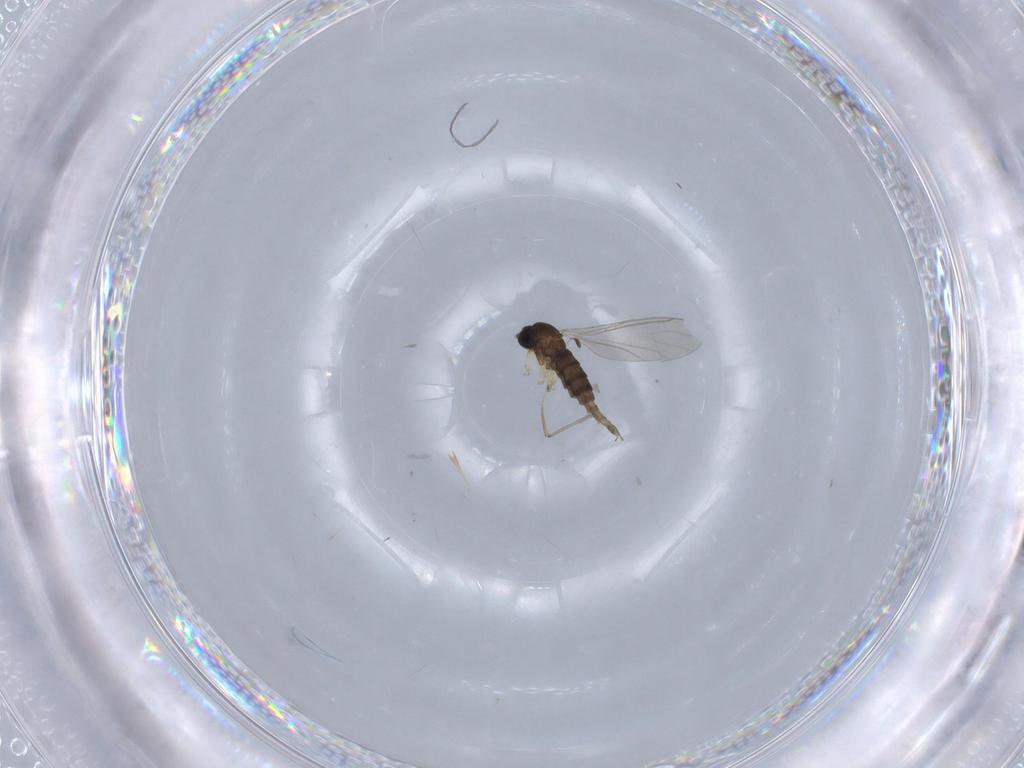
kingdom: Animalia
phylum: Arthropoda
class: Insecta
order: Diptera
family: Sciaridae
